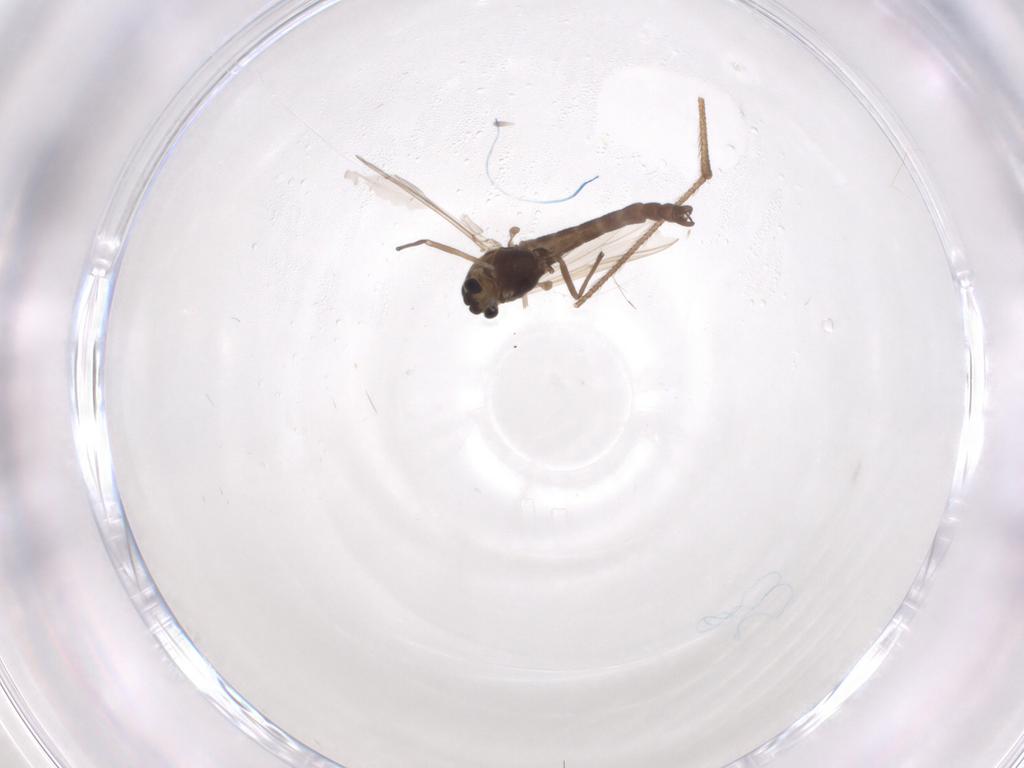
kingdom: Animalia
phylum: Arthropoda
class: Insecta
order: Diptera
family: Chironomidae
